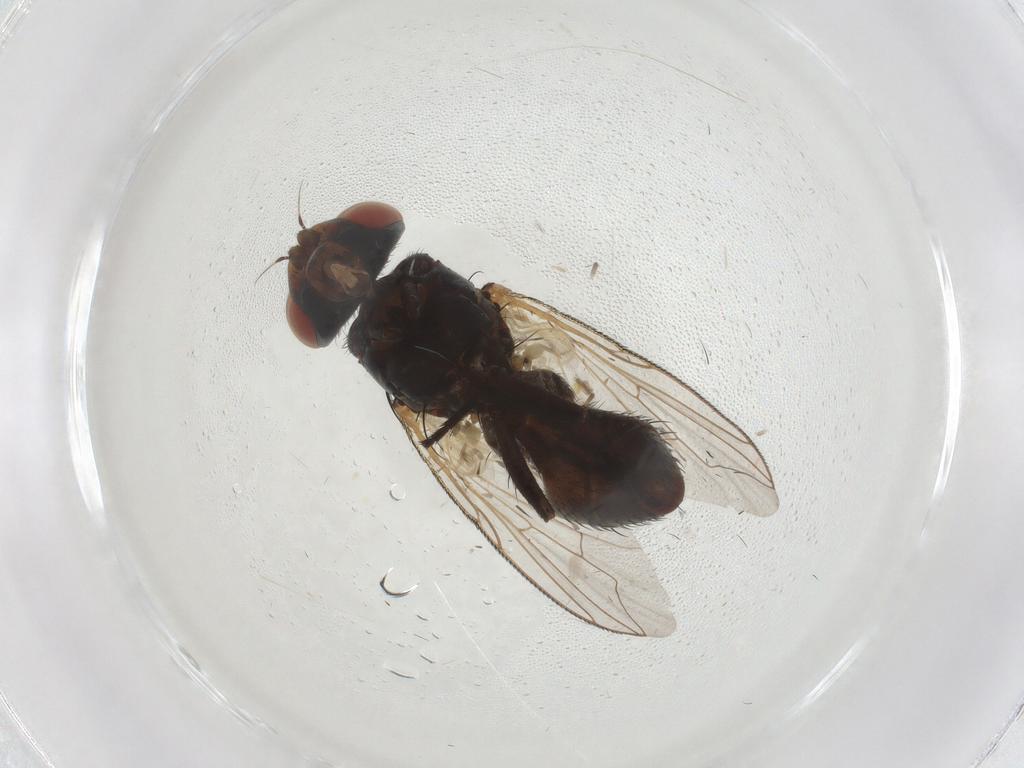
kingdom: Animalia
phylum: Arthropoda
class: Insecta
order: Diptera
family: Sarcophagidae
